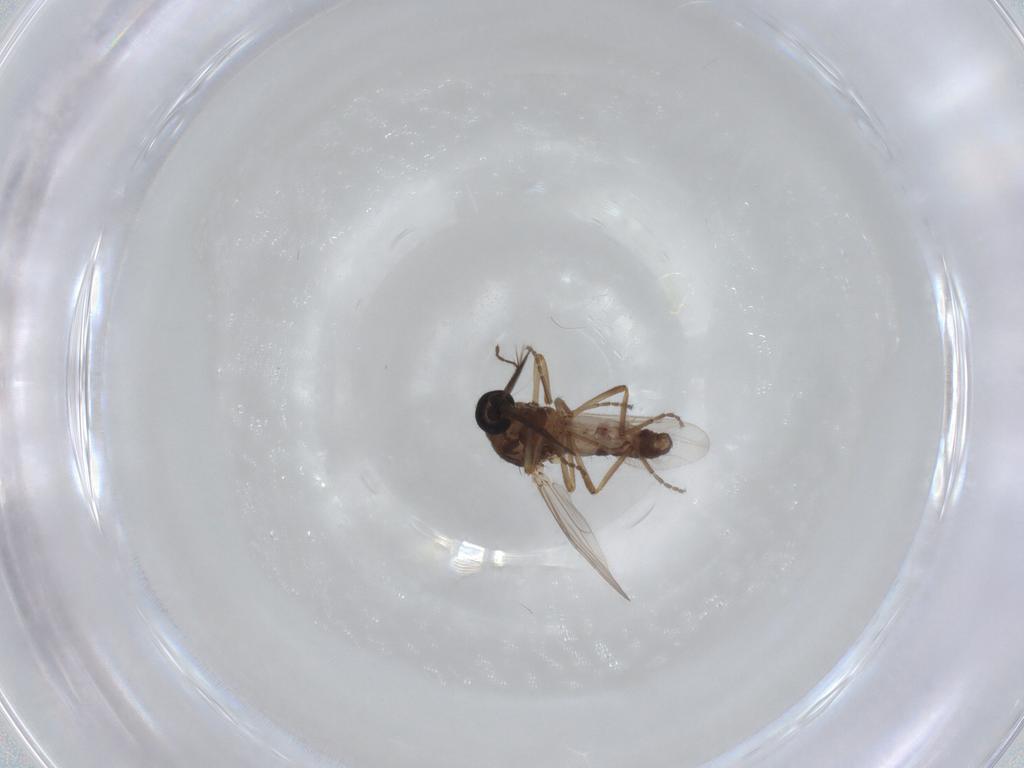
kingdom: Animalia
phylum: Arthropoda
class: Insecta
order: Diptera
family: Ceratopogonidae
